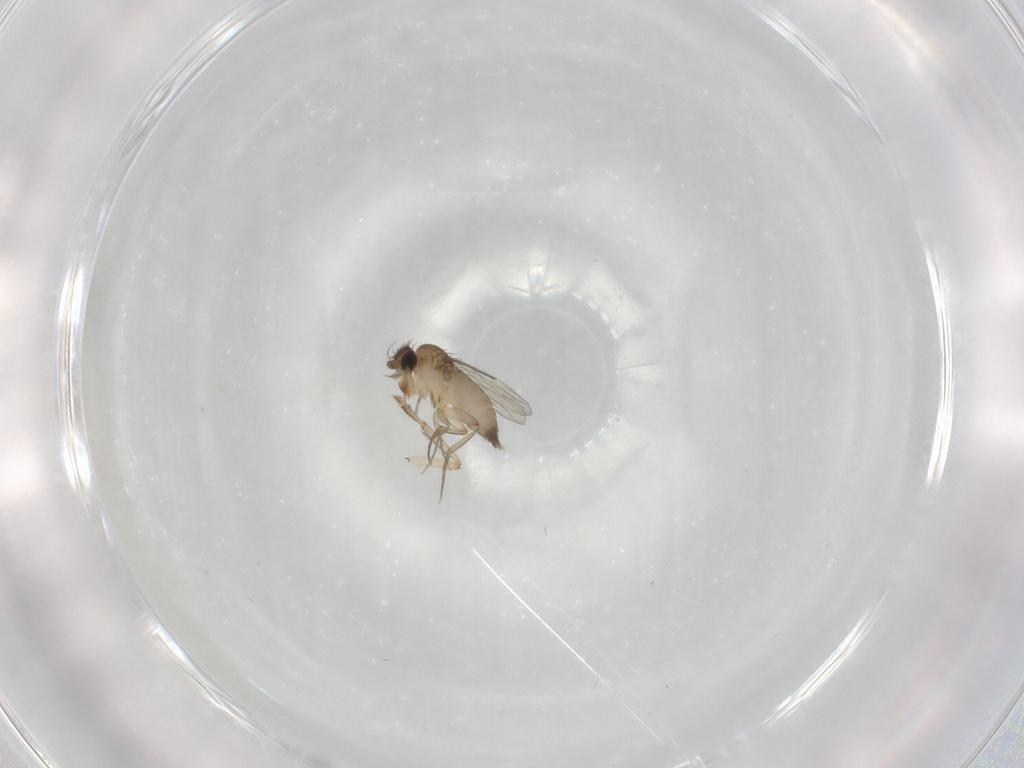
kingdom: Animalia
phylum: Arthropoda
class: Insecta
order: Diptera
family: Psychodidae
